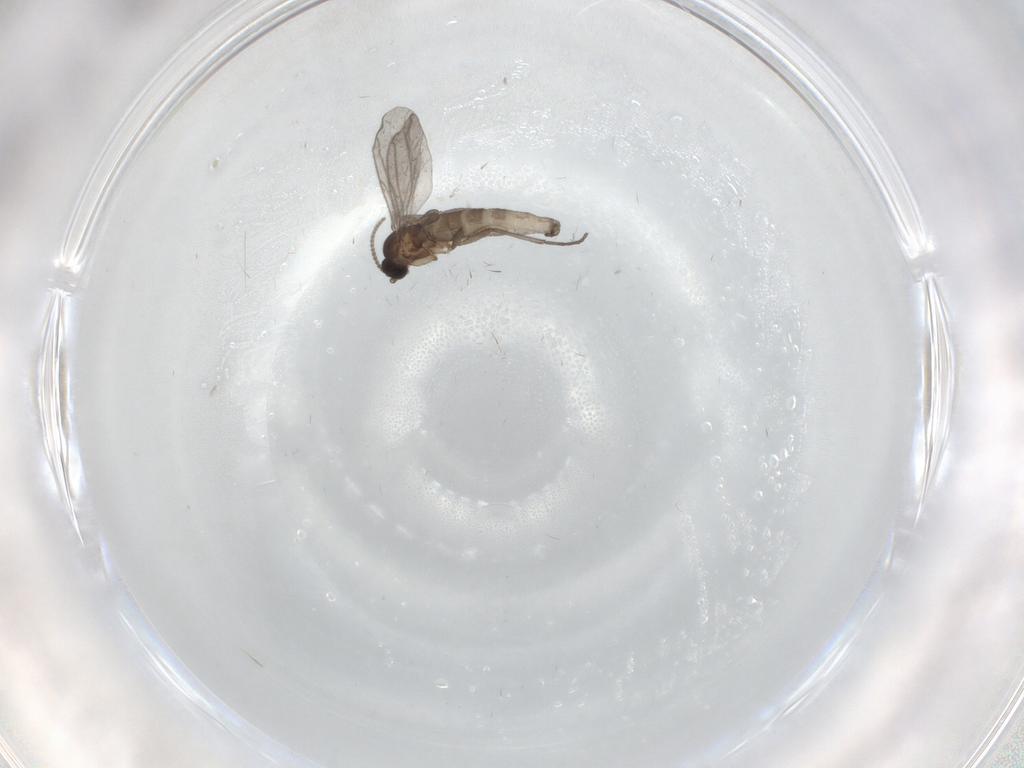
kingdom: Animalia
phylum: Arthropoda
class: Insecta
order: Diptera
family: Sciaridae
